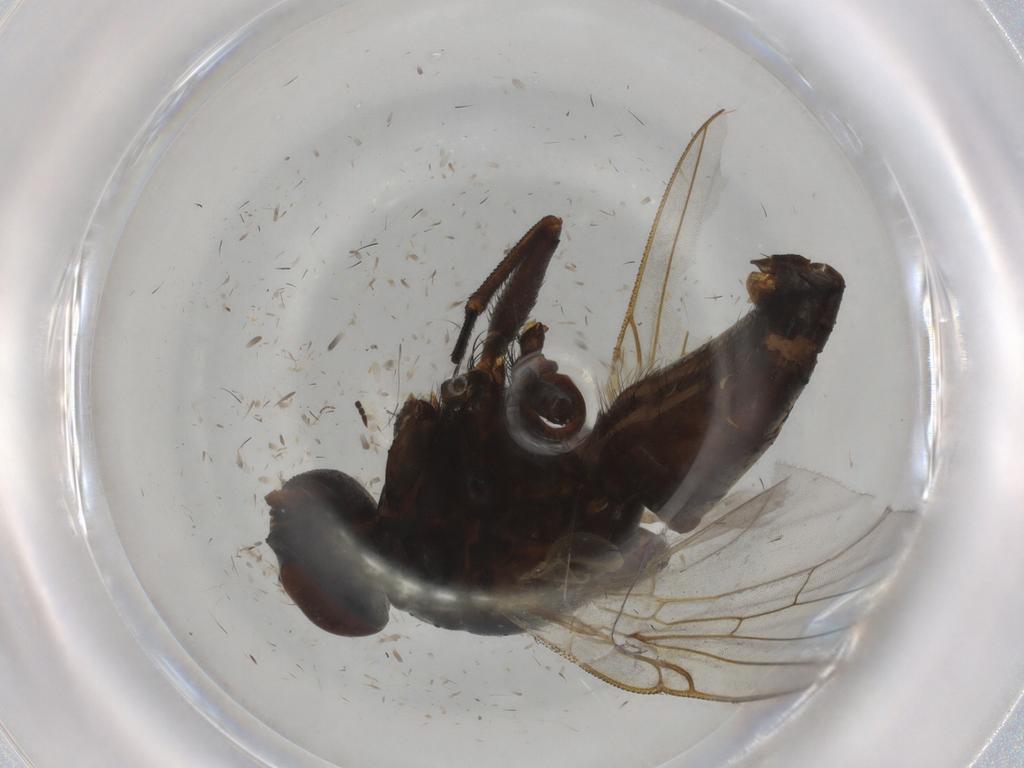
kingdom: Animalia
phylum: Arthropoda
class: Insecta
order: Diptera
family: Muscidae
